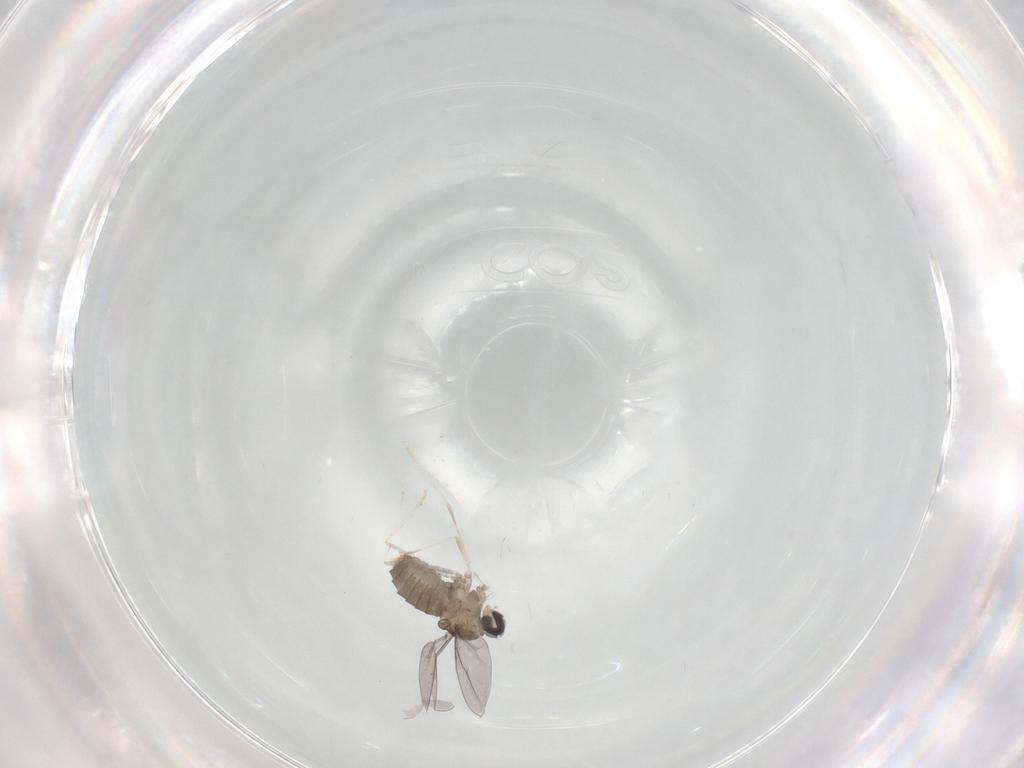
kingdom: Animalia
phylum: Arthropoda
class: Insecta
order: Diptera
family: Cecidomyiidae
